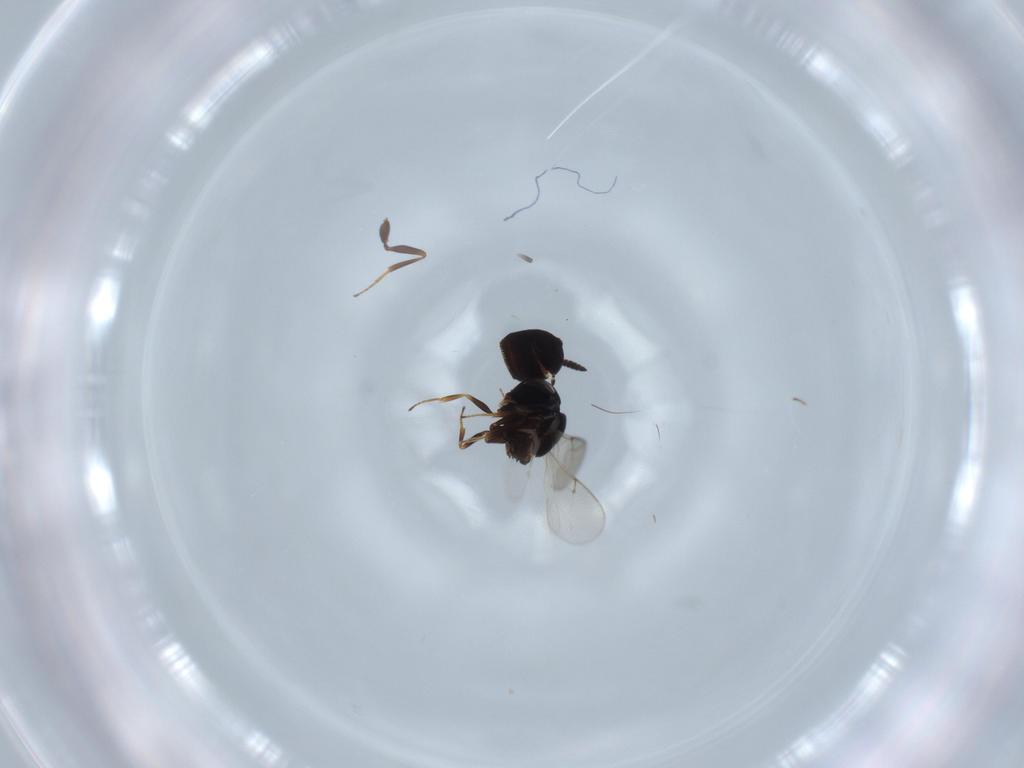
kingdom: Animalia
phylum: Arthropoda
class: Insecta
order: Hymenoptera
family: Scelionidae
